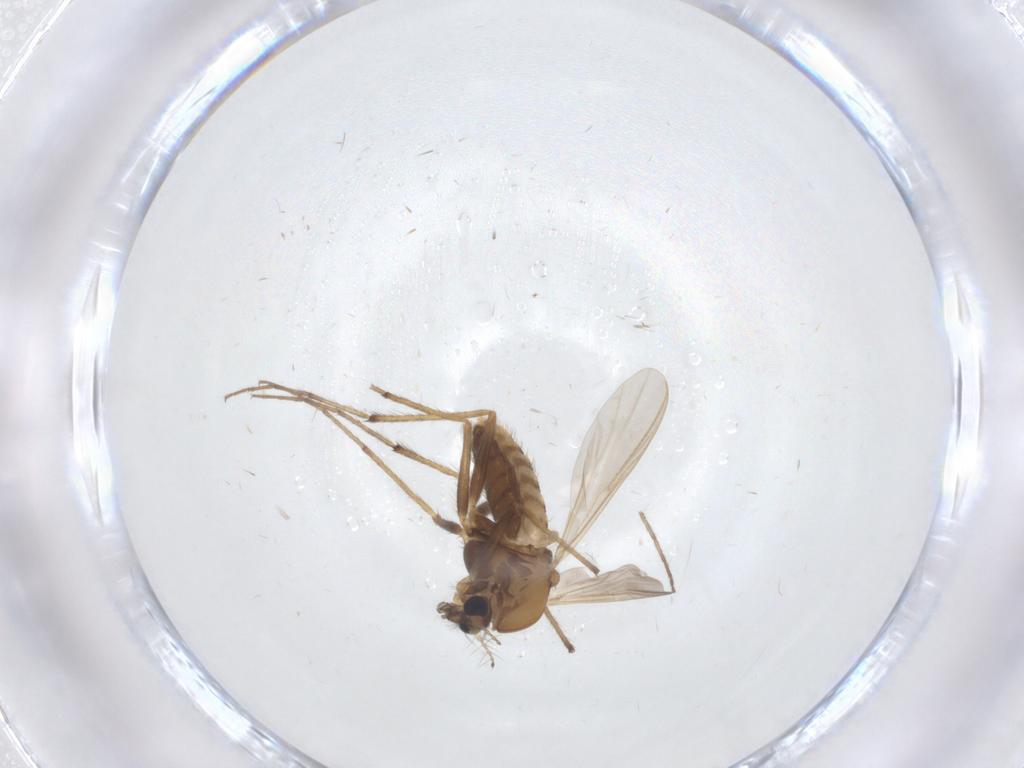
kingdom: Animalia
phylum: Arthropoda
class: Insecta
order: Diptera
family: Chironomidae
